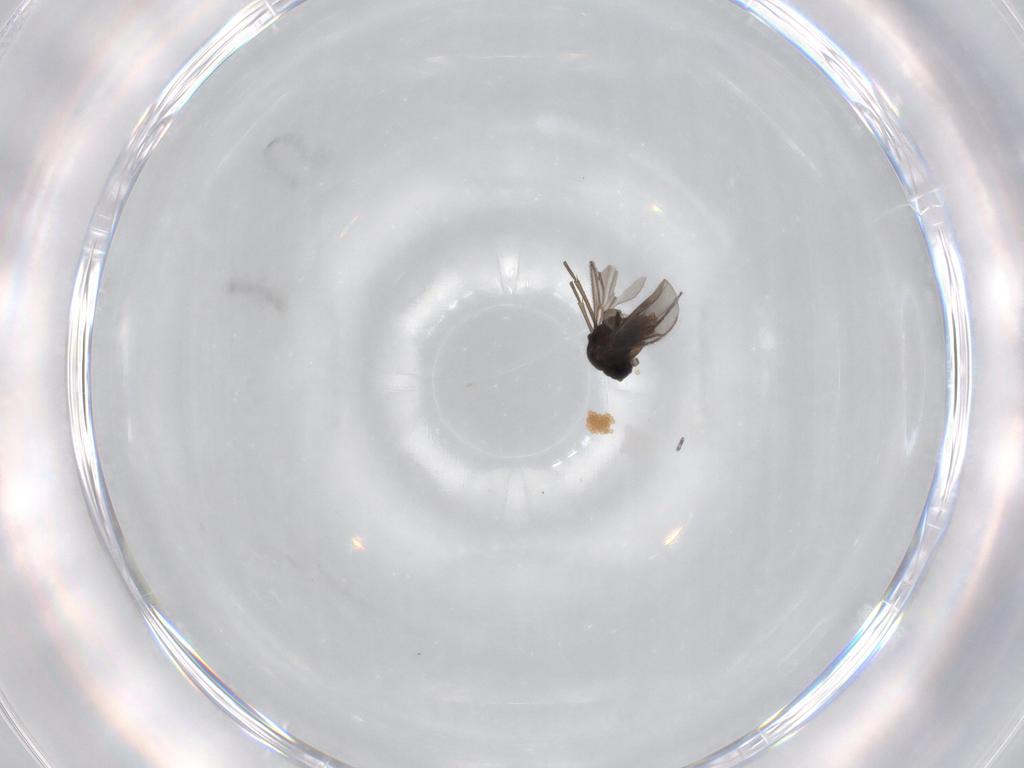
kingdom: Animalia
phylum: Arthropoda
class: Insecta
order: Diptera
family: Sciaridae
